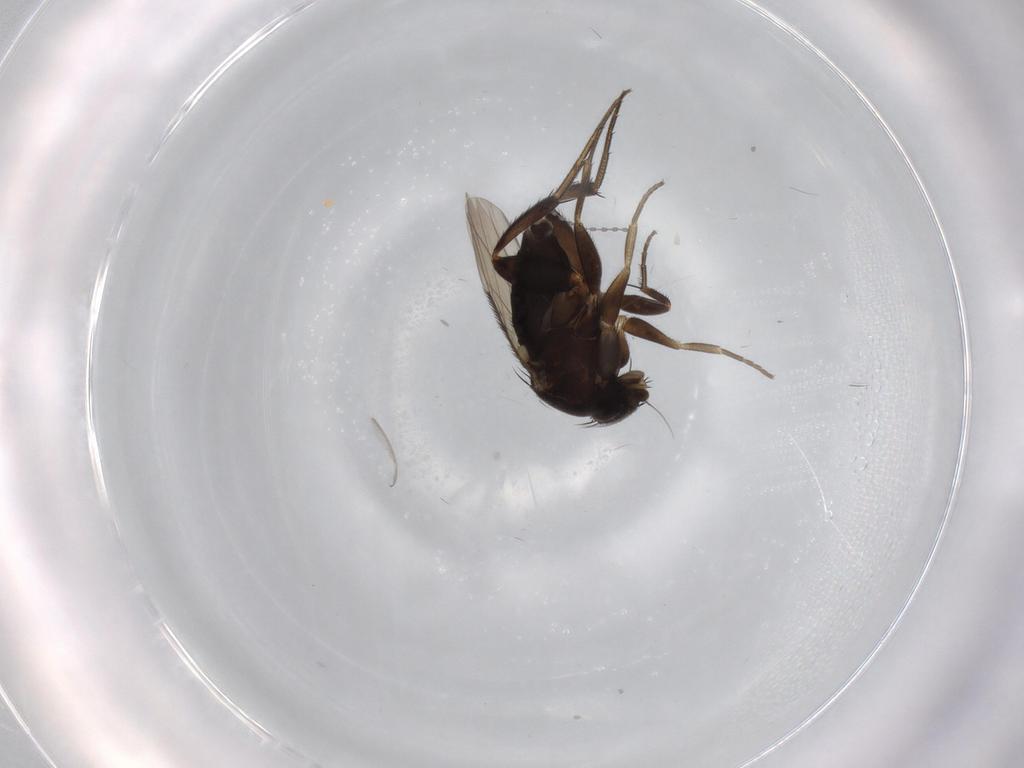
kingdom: Animalia
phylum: Arthropoda
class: Insecta
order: Diptera
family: Phoridae
